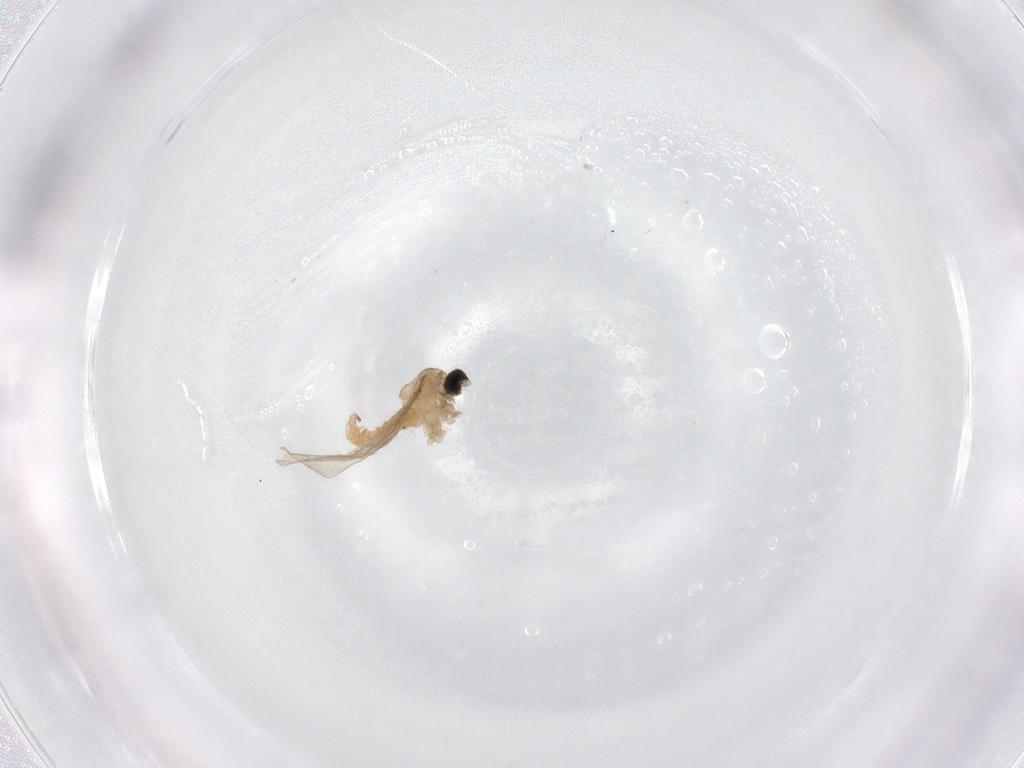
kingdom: Animalia
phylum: Arthropoda
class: Insecta
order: Diptera
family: Cecidomyiidae
